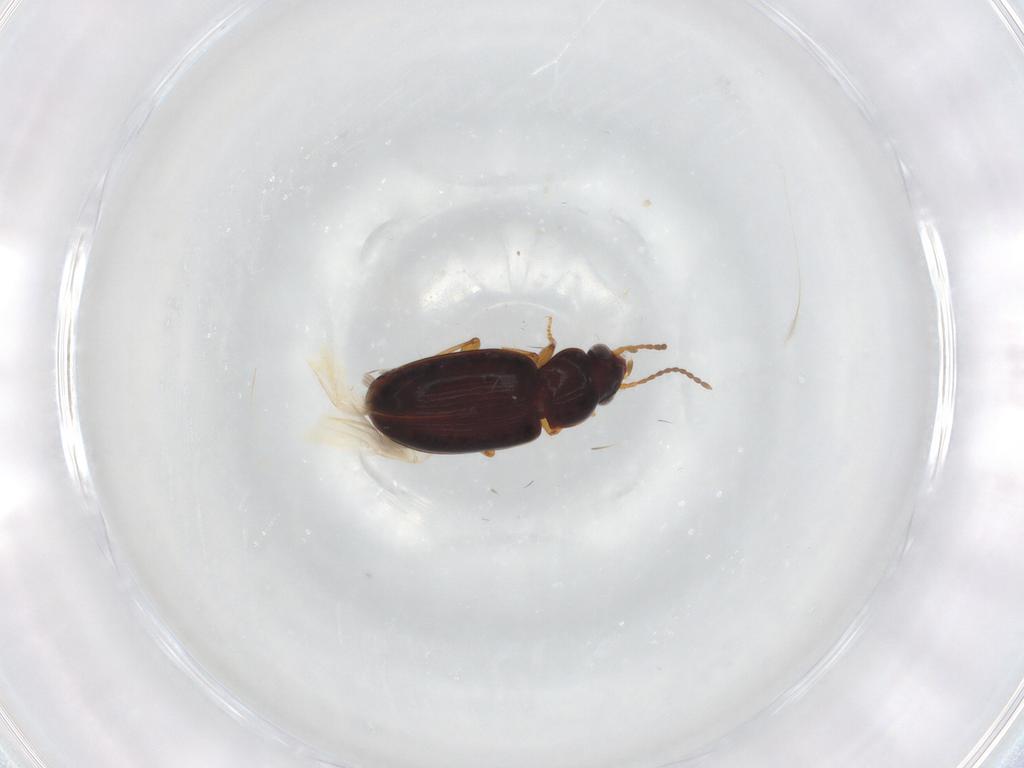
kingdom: Animalia
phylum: Arthropoda
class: Insecta
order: Coleoptera
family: Carabidae
